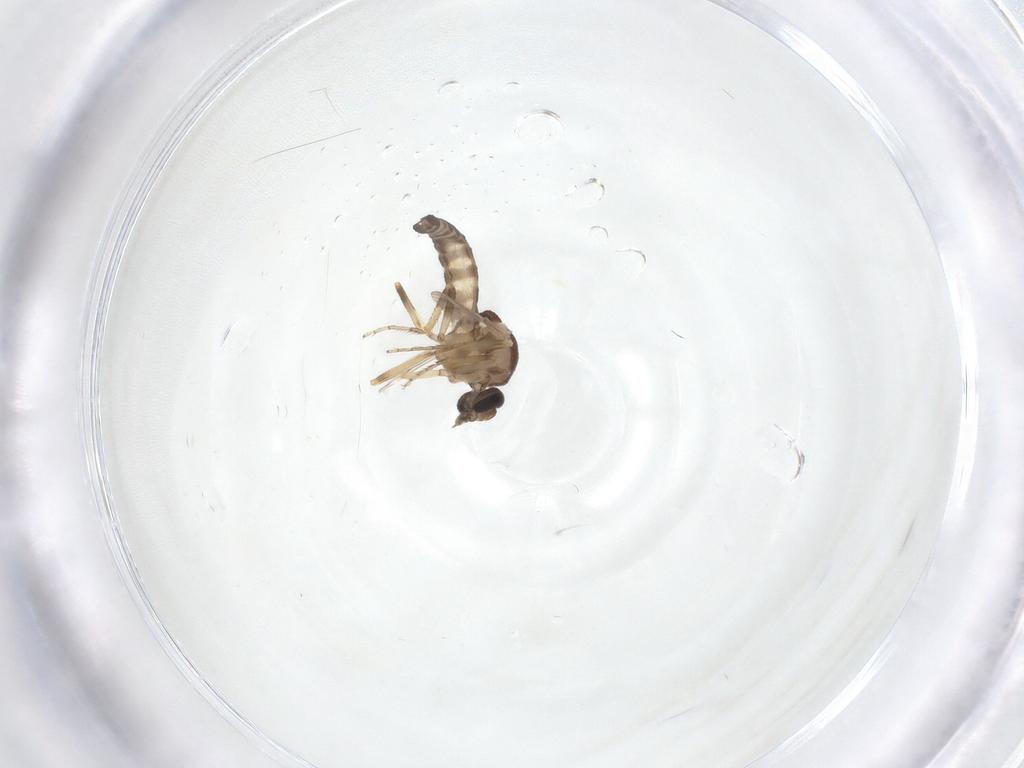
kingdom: Animalia
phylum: Arthropoda
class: Insecta
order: Diptera
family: Ceratopogonidae
